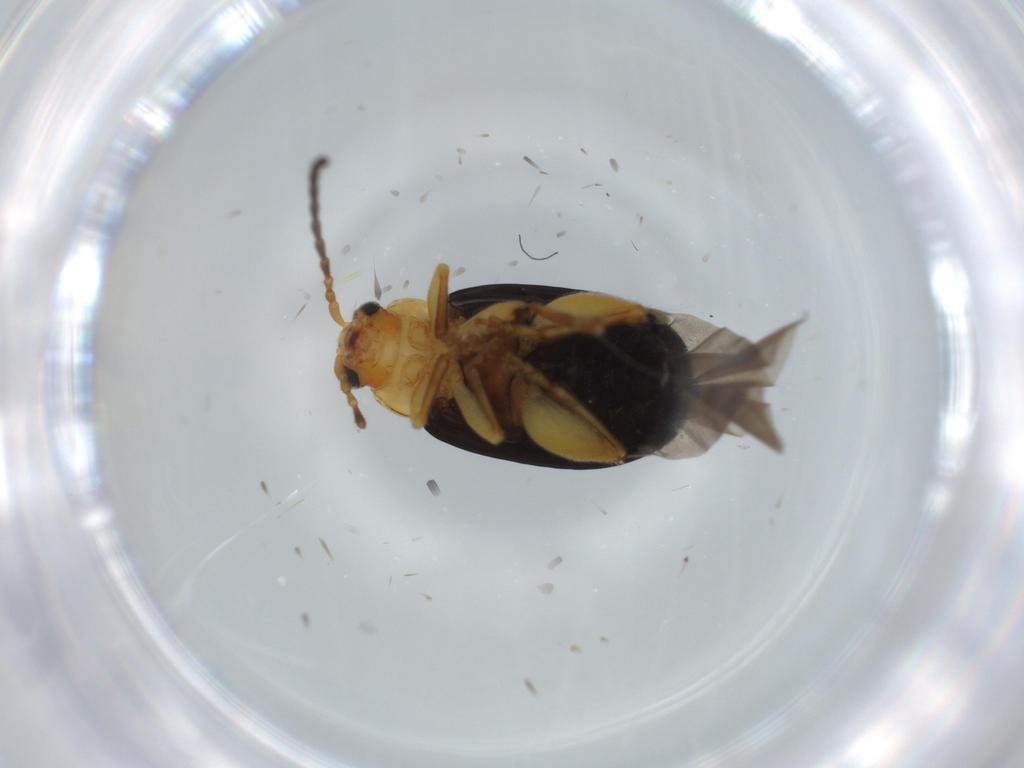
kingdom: Animalia
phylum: Arthropoda
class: Insecta
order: Coleoptera
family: Chrysomelidae
